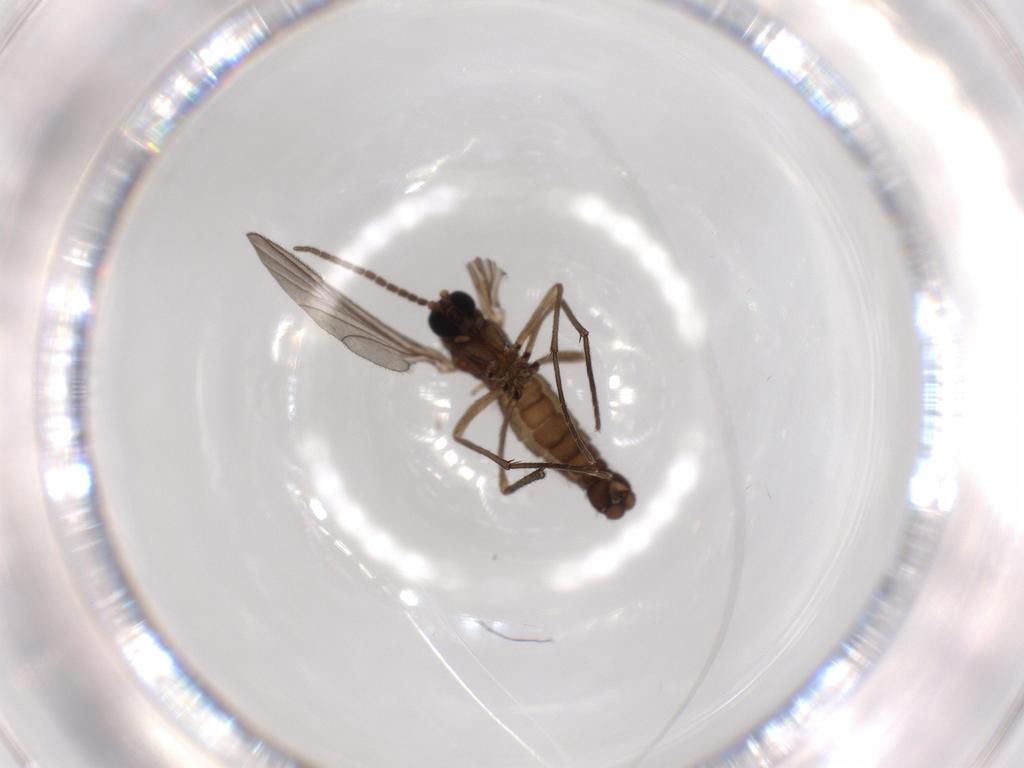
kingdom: Animalia
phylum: Arthropoda
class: Insecta
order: Diptera
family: Sciaridae
